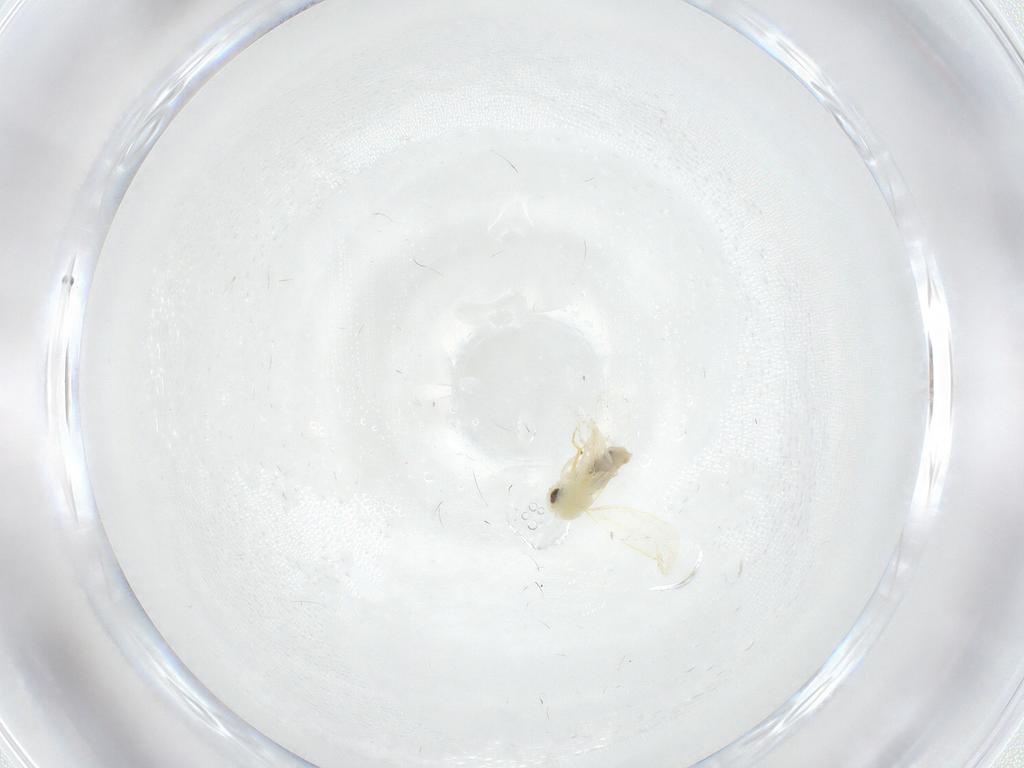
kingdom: Animalia
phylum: Arthropoda
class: Insecta
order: Hemiptera
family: Aleyrodidae
